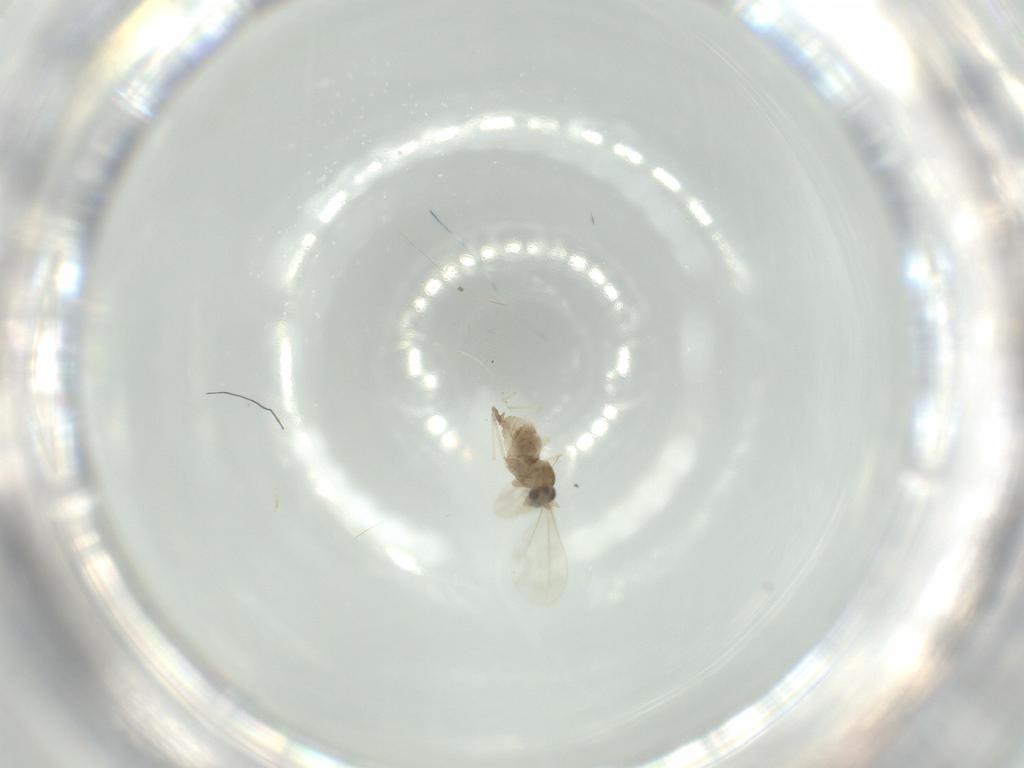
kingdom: Animalia
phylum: Arthropoda
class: Insecta
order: Diptera
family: Cecidomyiidae
